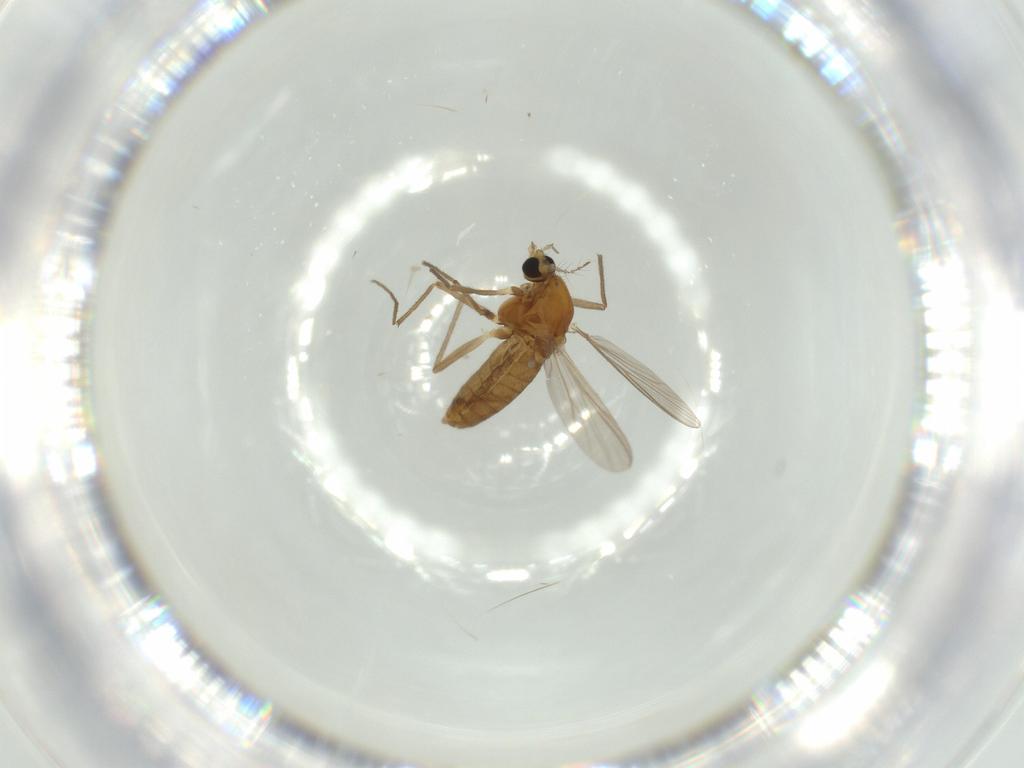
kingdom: Animalia
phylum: Arthropoda
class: Insecta
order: Diptera
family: Chironomidae
